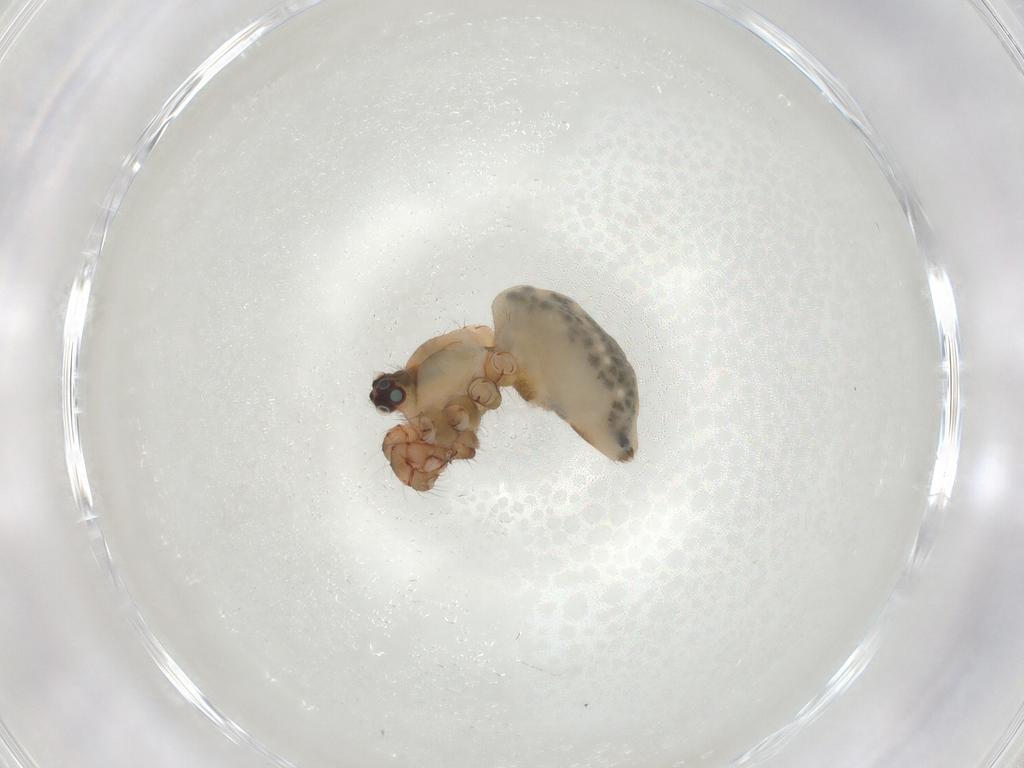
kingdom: Animalia
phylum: Arthropoda
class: Arachnida
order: Araneae
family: Pholcidae
